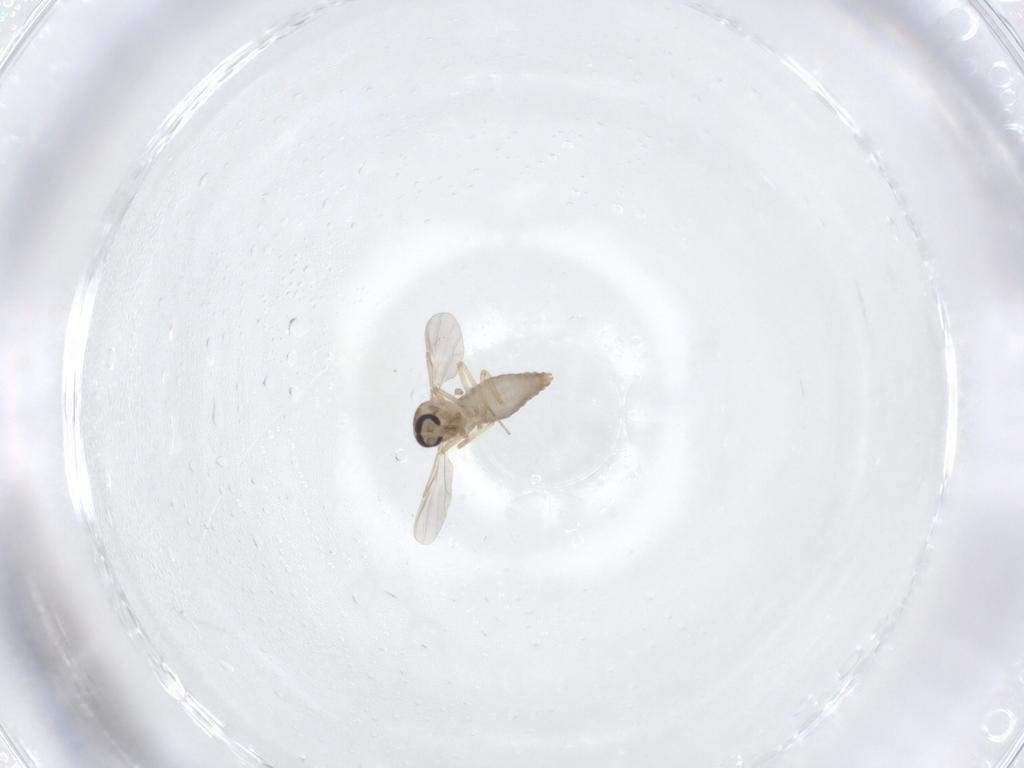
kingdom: Animalia
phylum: Arthropoda
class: Insecta
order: Diptera
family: Ceratopogonidae
